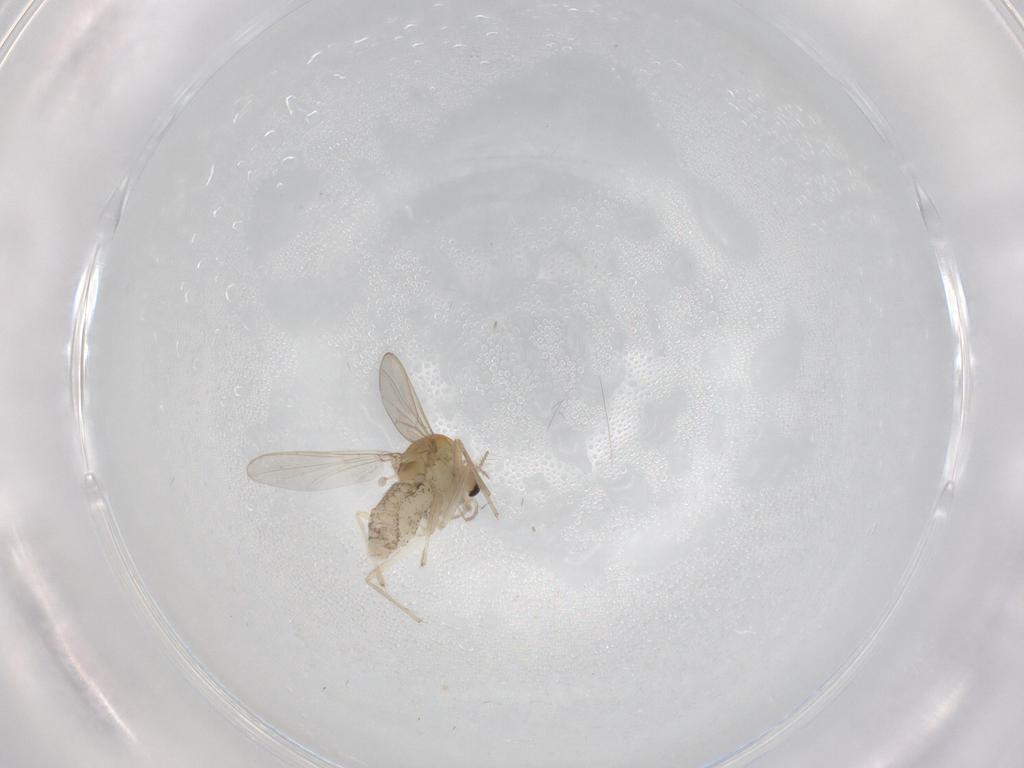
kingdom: Animalia
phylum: Arthropoda
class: Insecta
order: Diptera
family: Chironomidae
